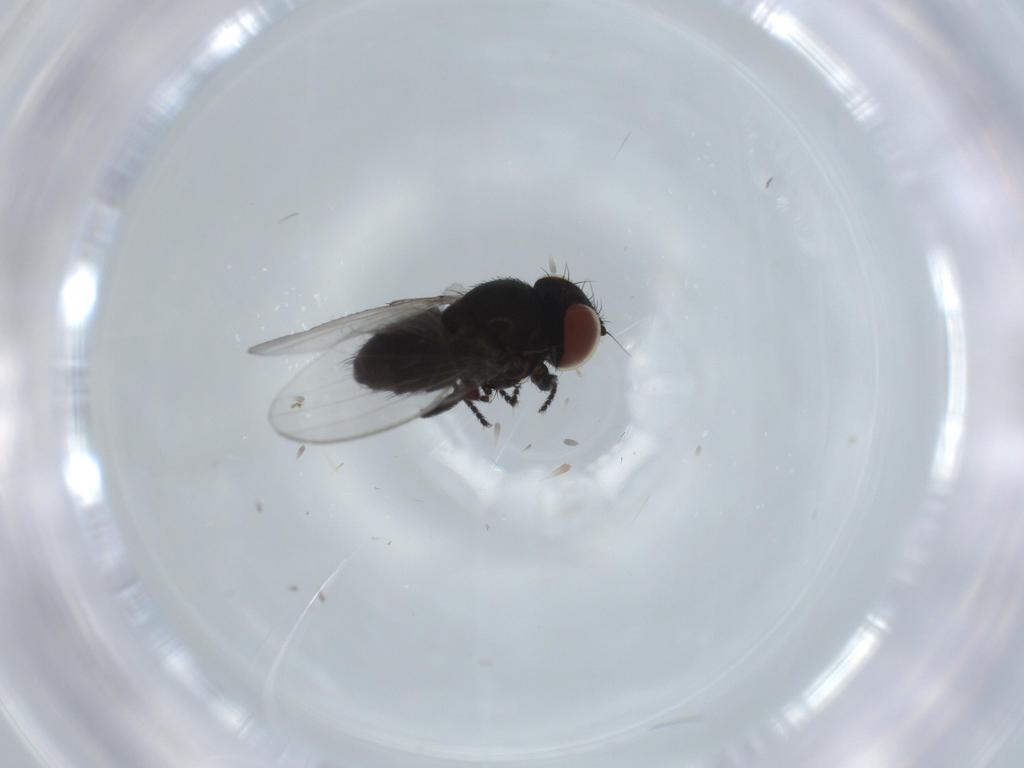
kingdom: Animalia
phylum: Arthropoda
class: Insecta
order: Diptera
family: Milichiidae
